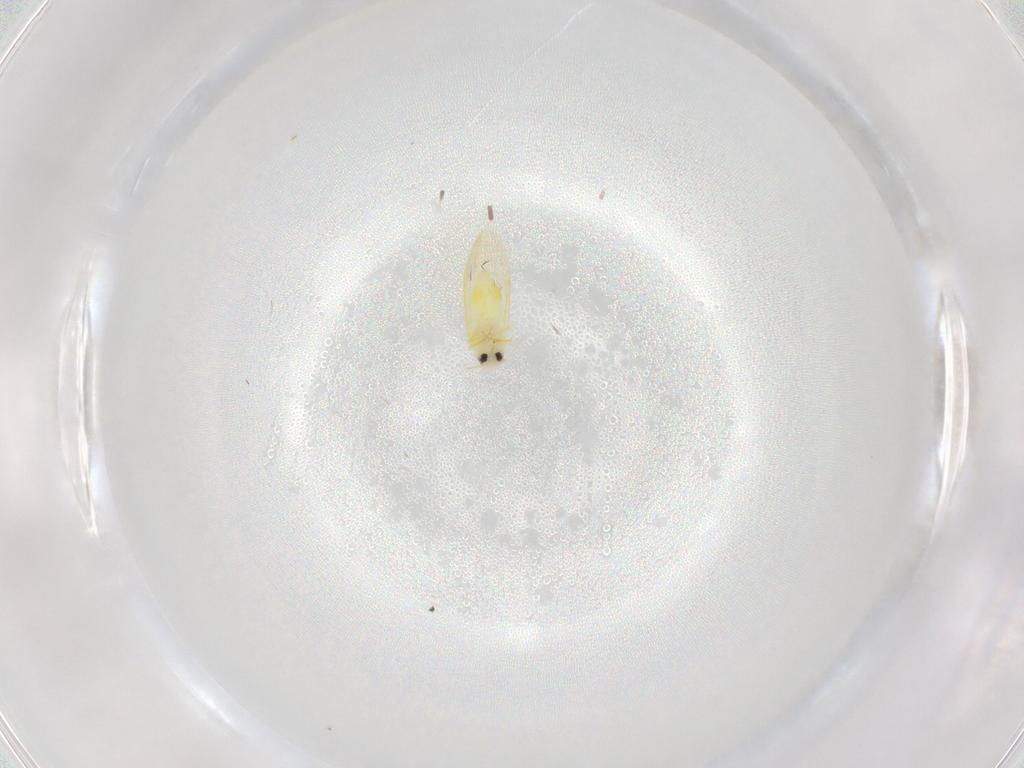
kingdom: Animalia
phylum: Arthropoda
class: Insecta
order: Hemiptera
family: Aleyrodidae
